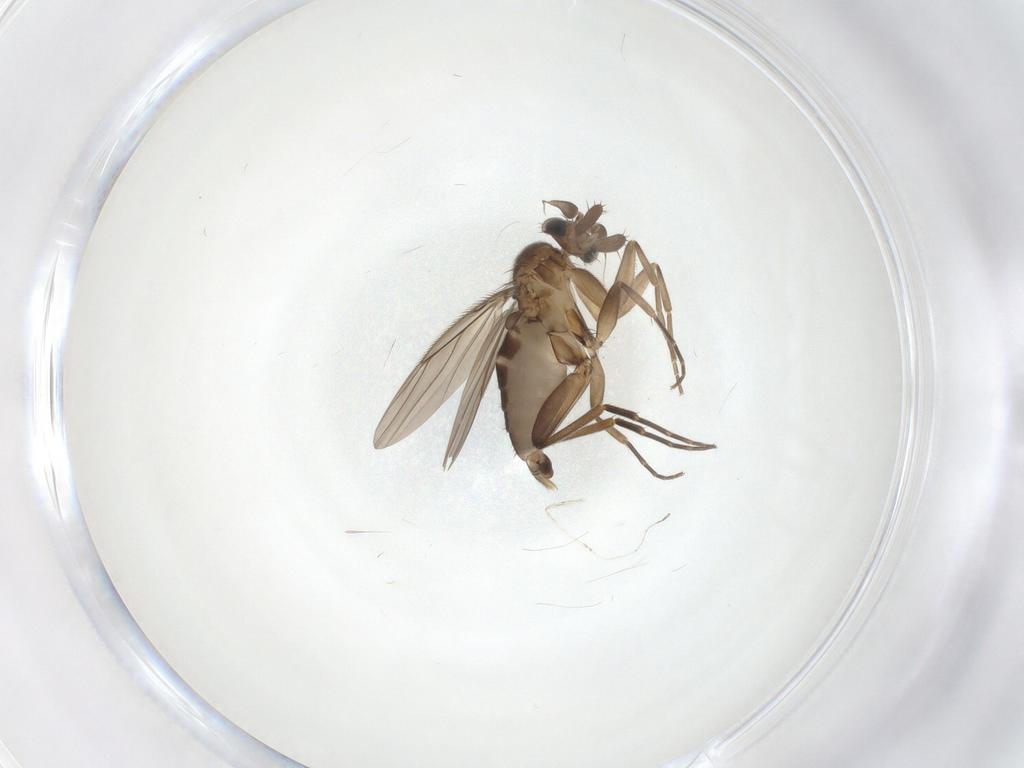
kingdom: Animalia
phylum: Arthropoda
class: Insecta
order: Diptera
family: Phoridae
